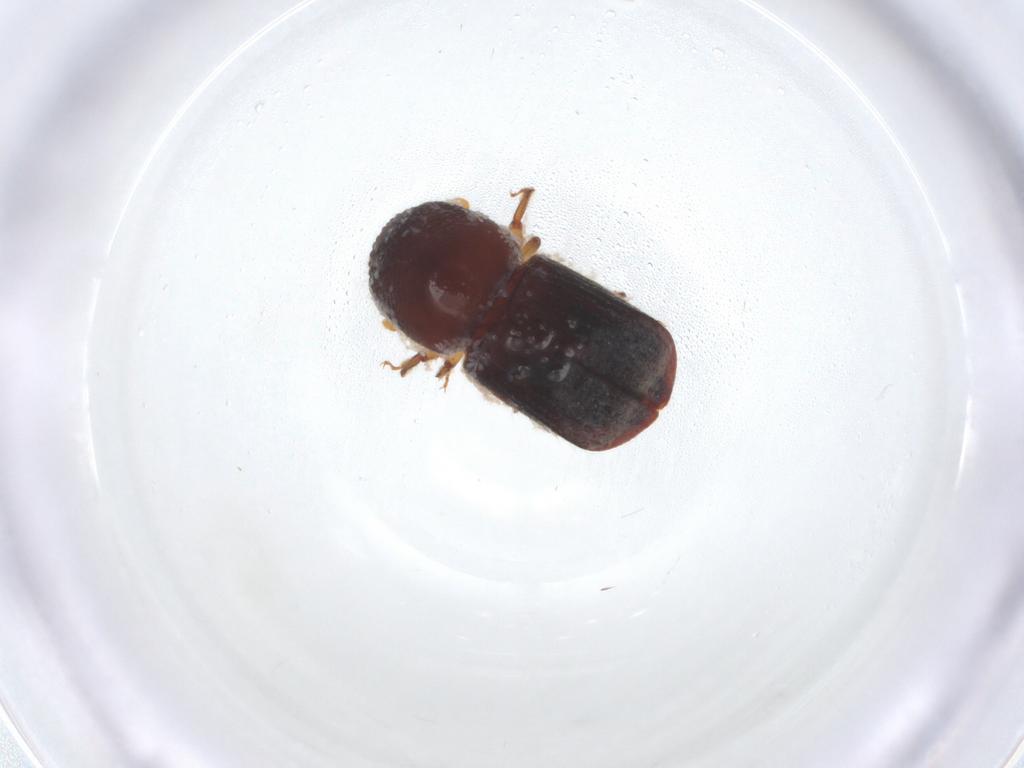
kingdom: Animalia
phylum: Arthropoda
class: Insecta
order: Coleoptera
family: Curculionidae
